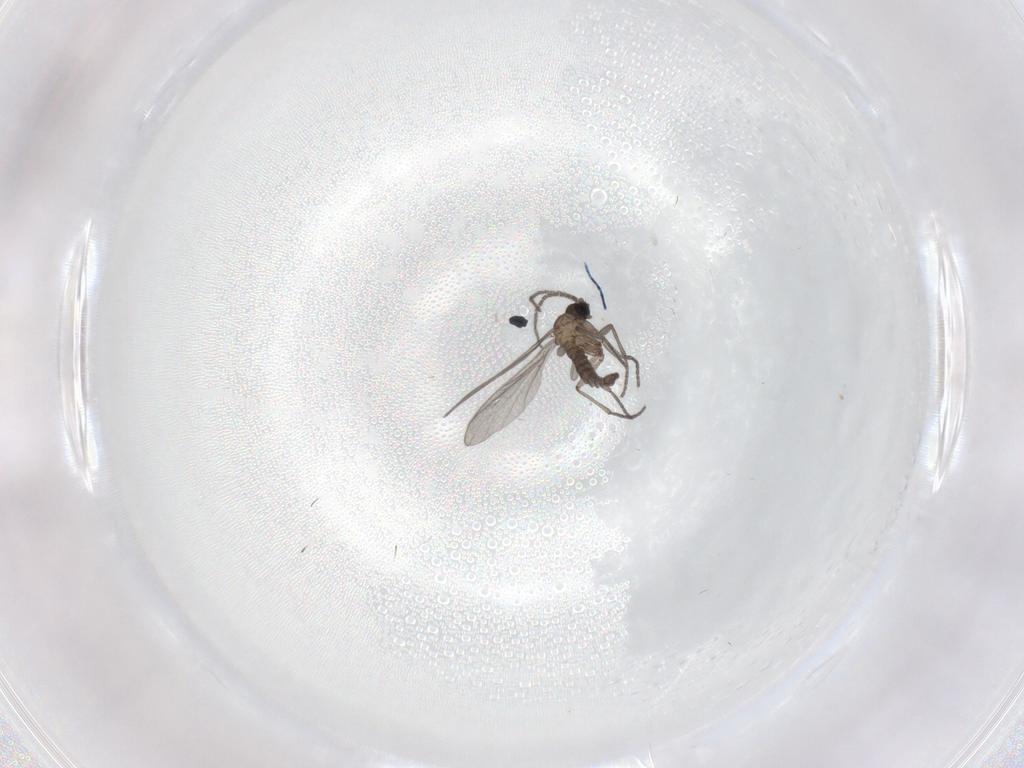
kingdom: Animalia
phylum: Arthropoda
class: Insecta
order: Diptera
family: Sciaridae
